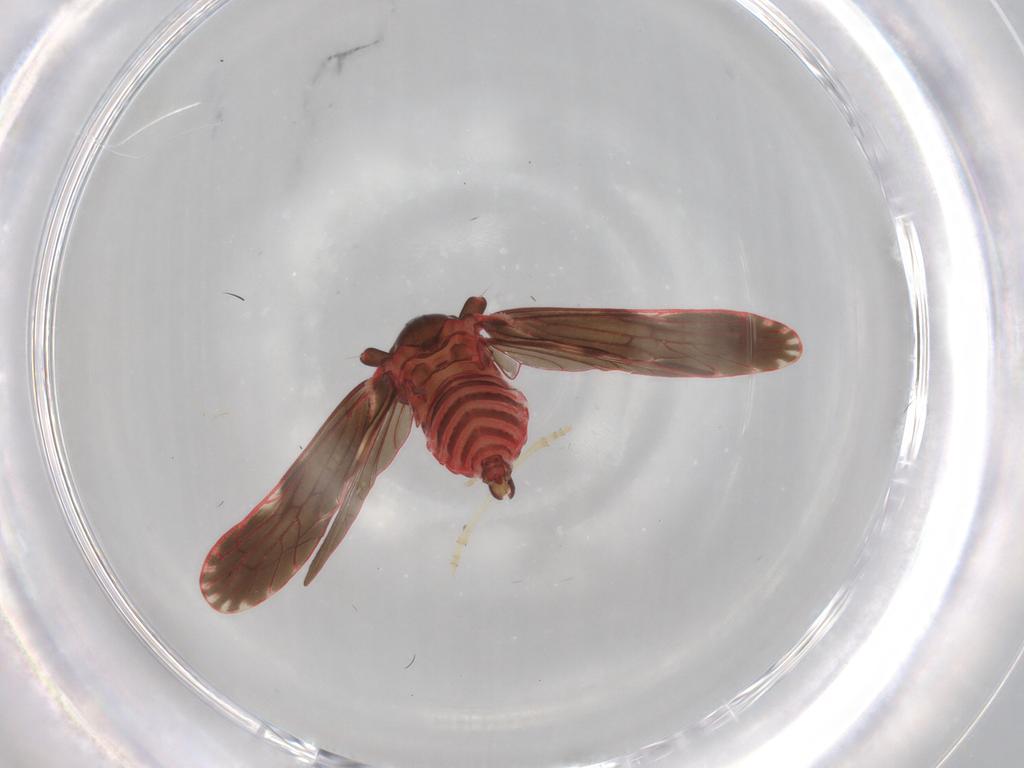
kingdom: Animalia
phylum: Arthropoda
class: Insecta
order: Hemiptera
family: Derbidae
